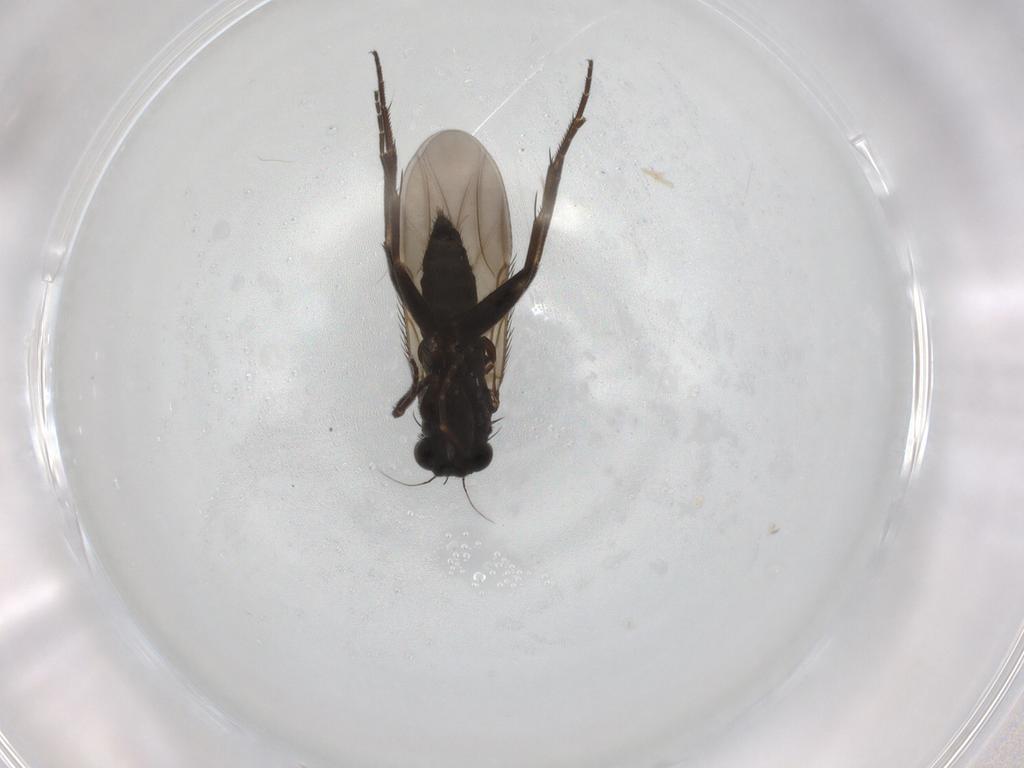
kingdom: Animalia
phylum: Arthropoda
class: Insecta
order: Diptera
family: Phoridae
